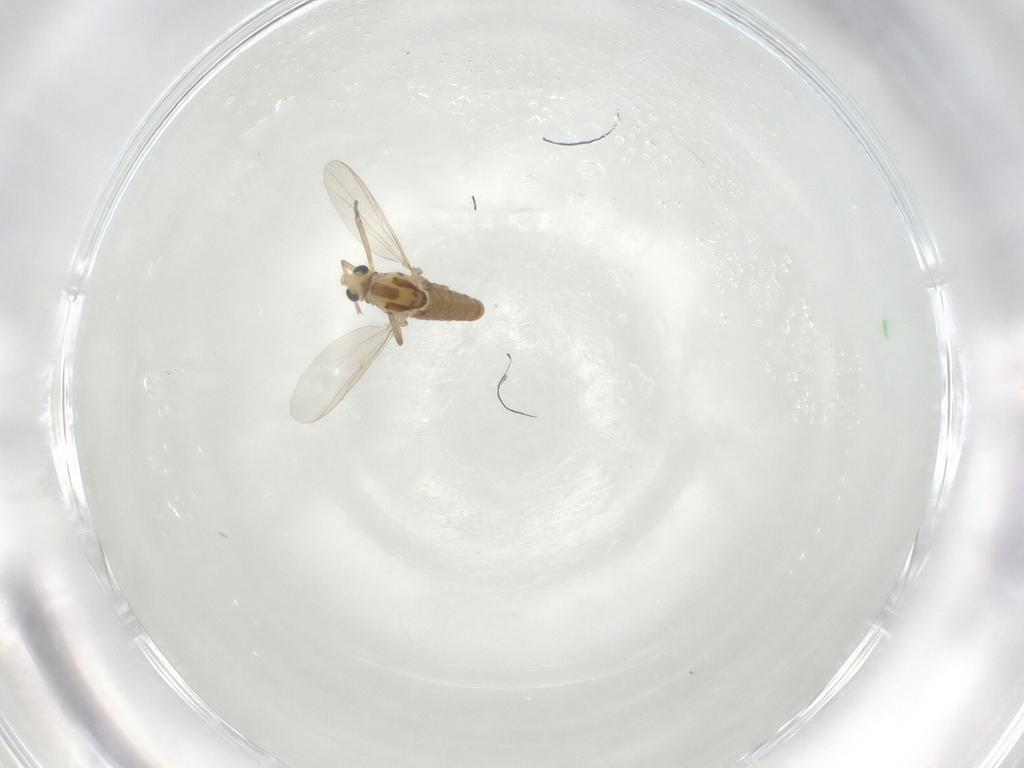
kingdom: Animalia
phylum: Arthropoda
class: Insecta
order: Diptera
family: Chironomidae
